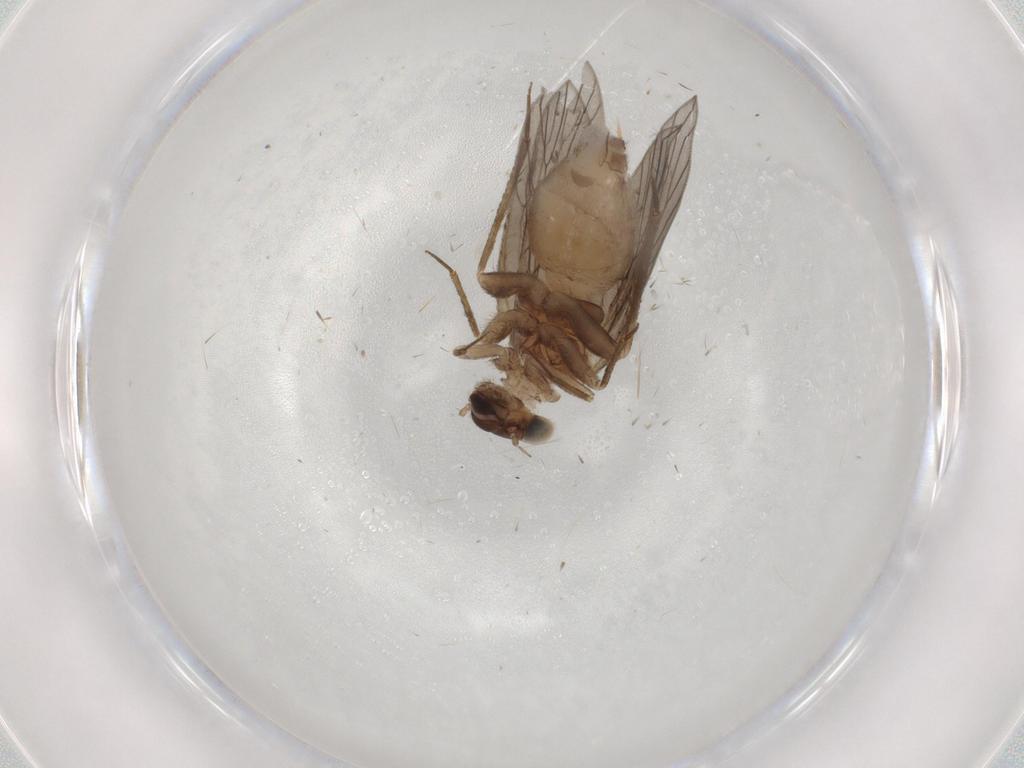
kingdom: Animalia
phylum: Arthropoda
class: Insecta
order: Psocodea
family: Lepidopsocidae
